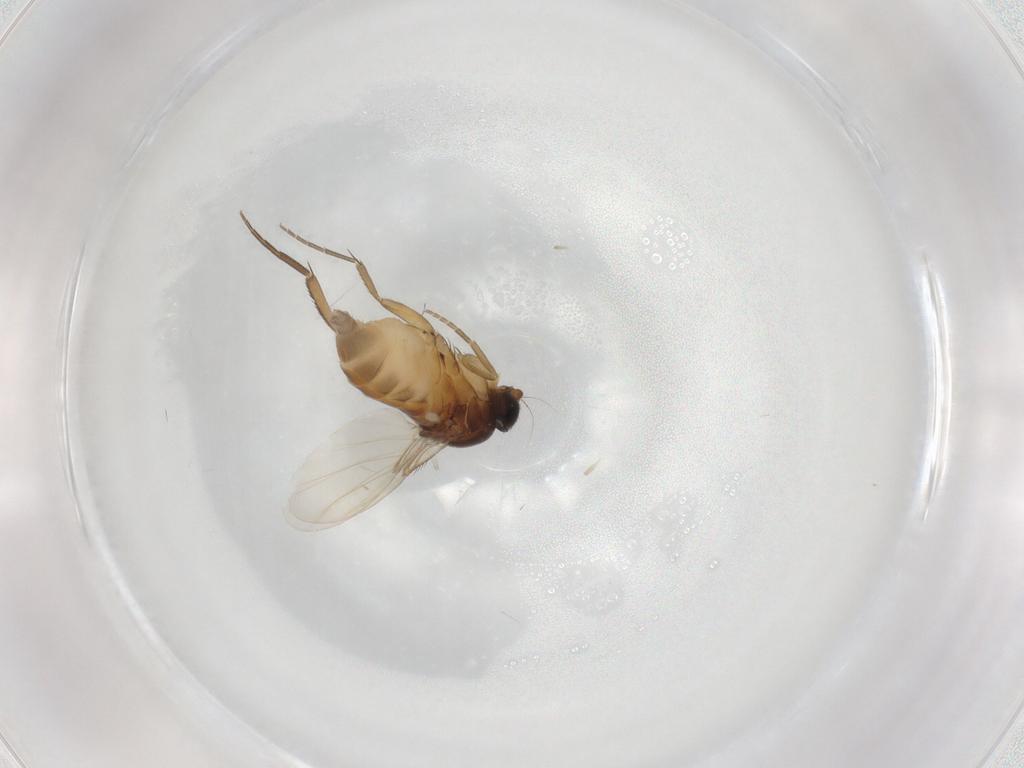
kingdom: Animalia
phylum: Arthropoda
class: Insecta
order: Diptera
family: Phoridae
